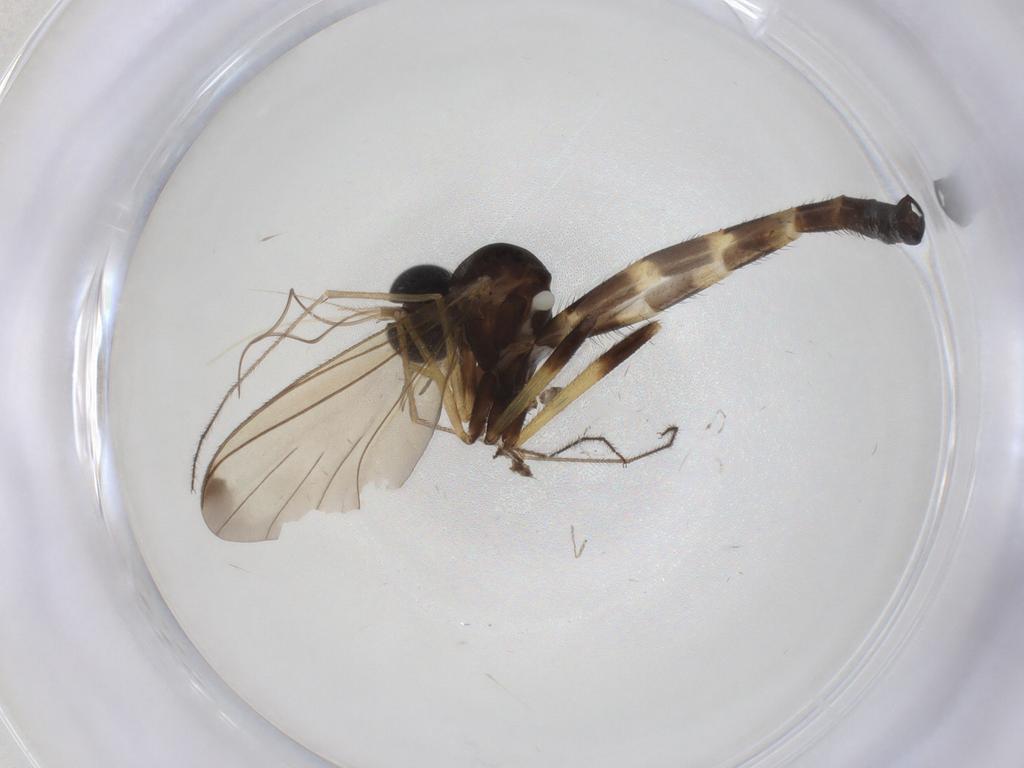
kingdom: Animalia
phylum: Arthropoda
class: Insecta
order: Diptera
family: Keroplatidae
